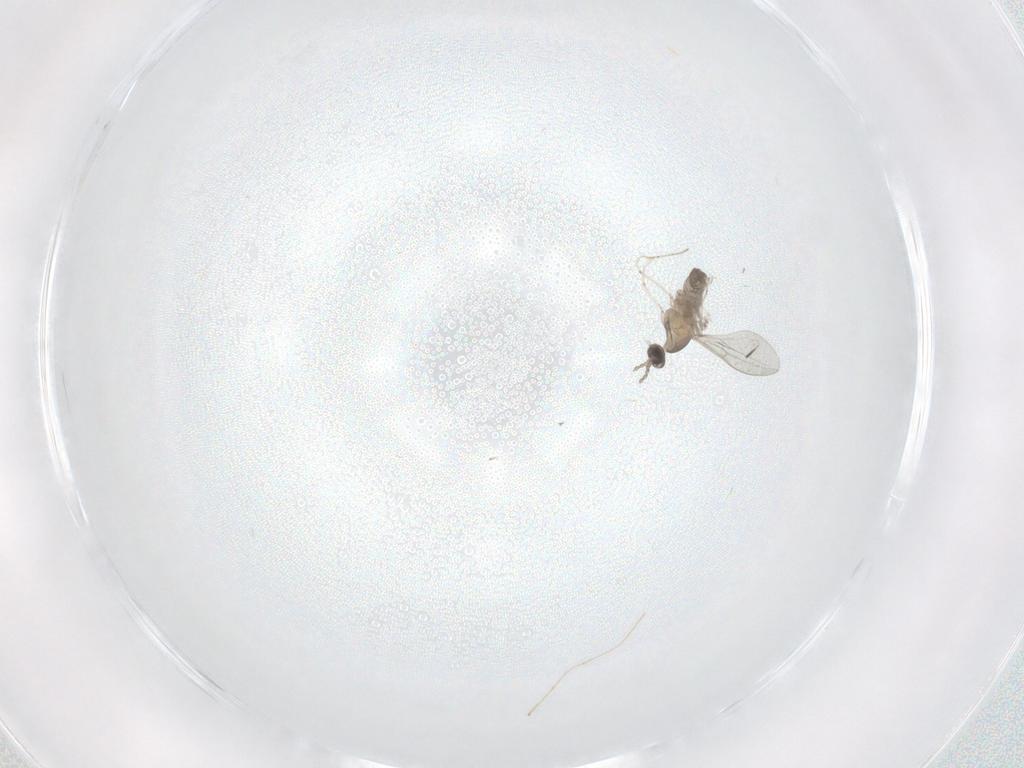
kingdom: Animalia
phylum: Arthropoda
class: Insecta
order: Diptera
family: Cecidomyiidae
